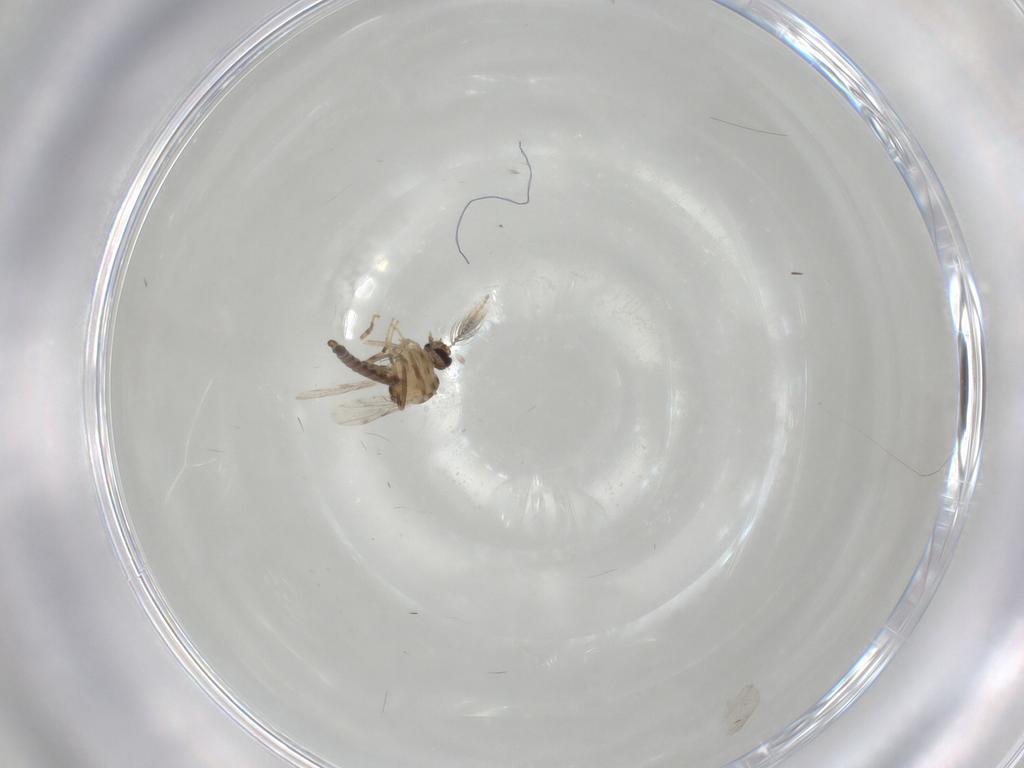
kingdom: Animalia
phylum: Arthropoda
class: Insecta
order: Diptera
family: Ceratopogonidae
